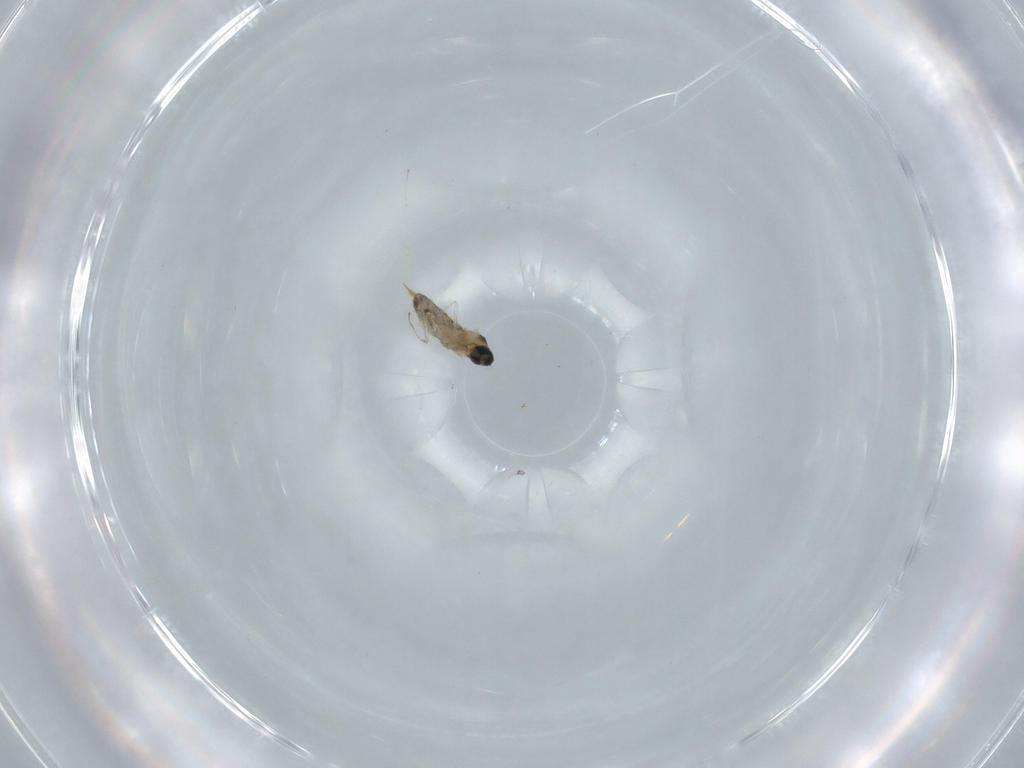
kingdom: Animalia
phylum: Arthropoda
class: Insecta
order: Diptera
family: Cecidomyiidae
